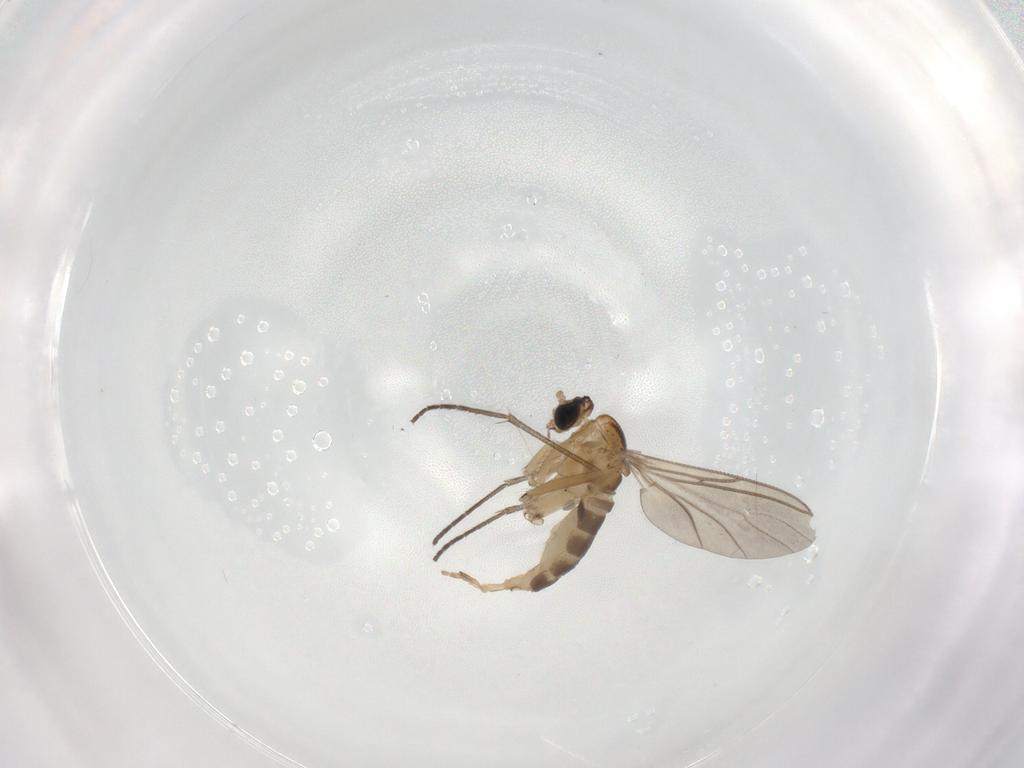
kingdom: Animalia
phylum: Arthropoda
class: Insecta
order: Diptera
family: Sciaridae
